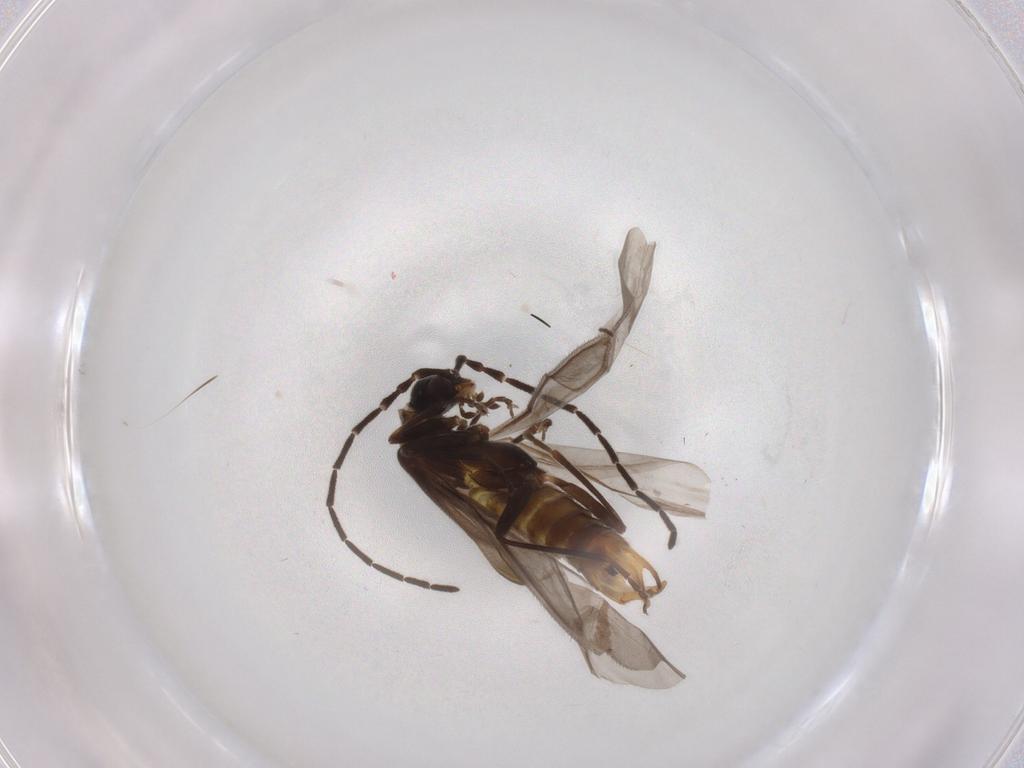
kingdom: Animalia
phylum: Arthropoda
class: Insecta
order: Coleoptera
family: Cantharidae
